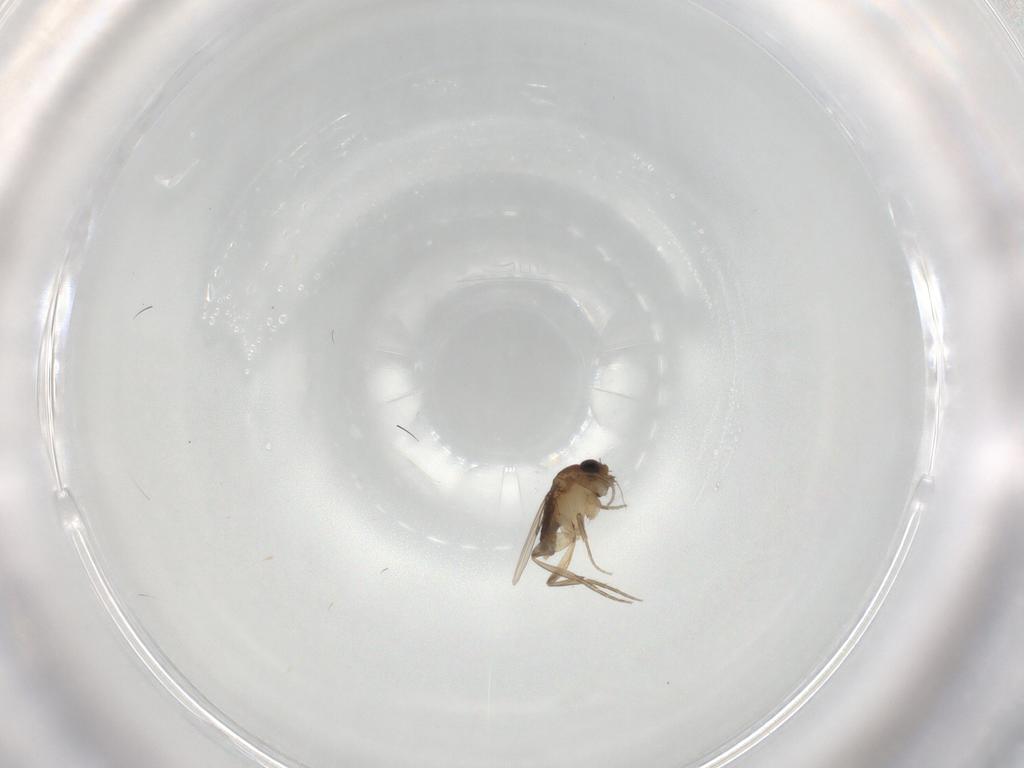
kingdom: Animalia
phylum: Arthropoda
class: Insecta
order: Diptera
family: Phoridae
